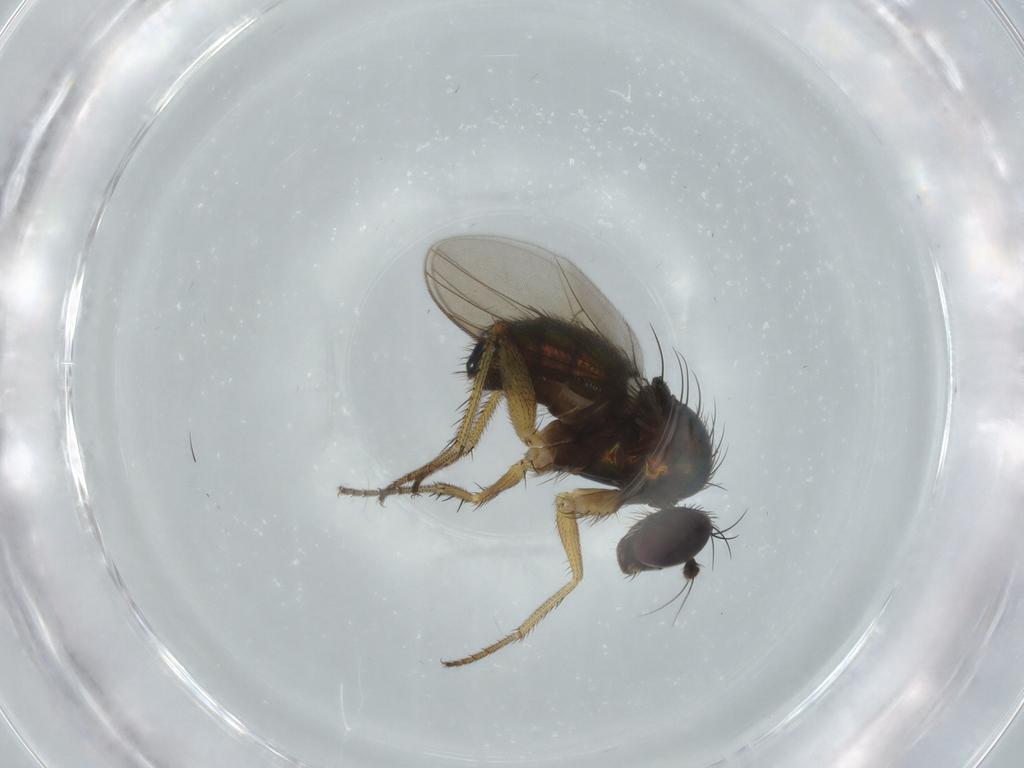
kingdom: Animalia
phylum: Arthropoda
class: Insecta
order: Diptera
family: Dolichopodidae
